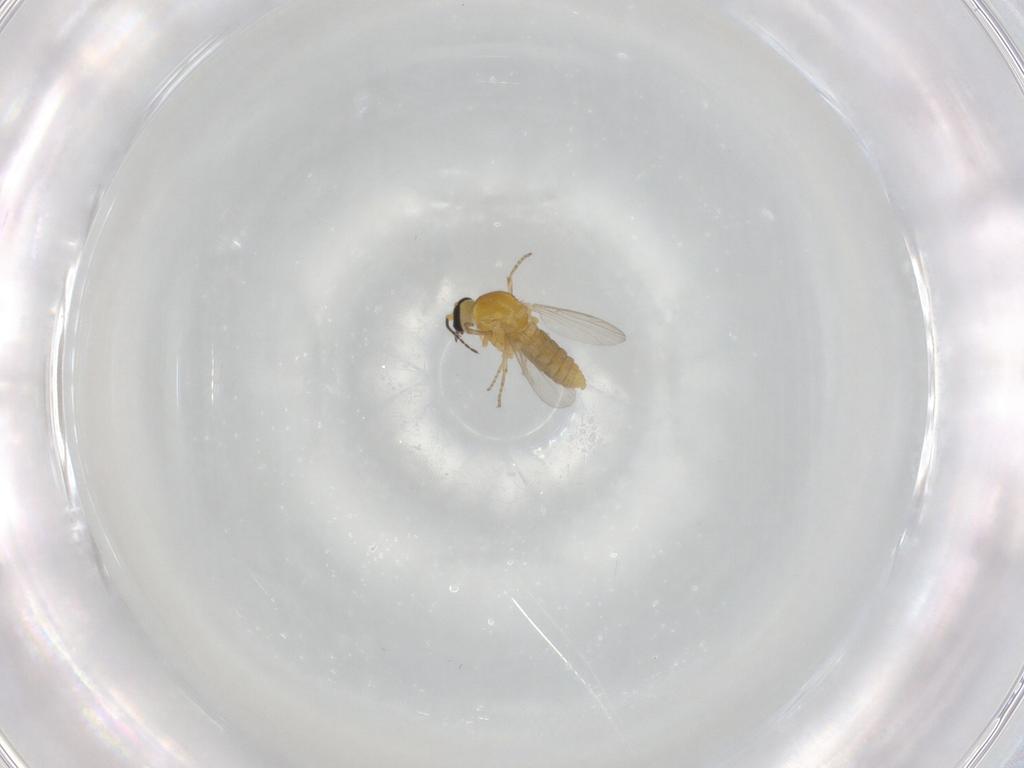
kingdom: Animalia
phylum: Arthropoda
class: Insecta
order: Diptera
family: Ceratopogonidae
